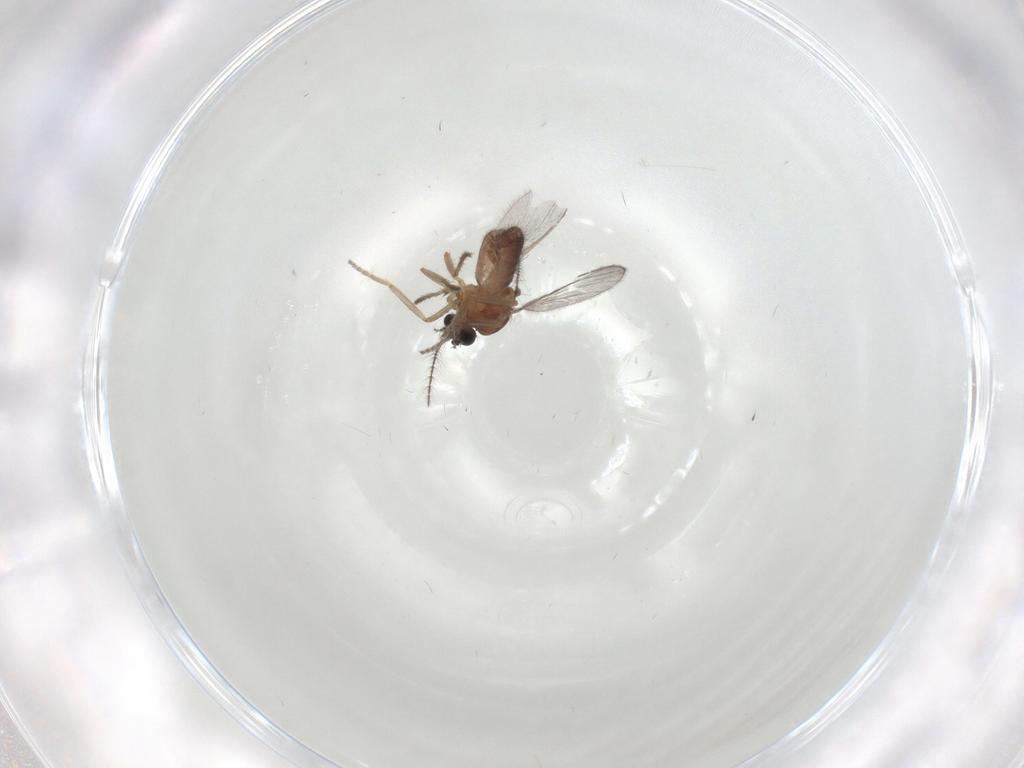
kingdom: Animalia
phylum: Arthropoda
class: Insecta
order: Diptera
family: Ceratopogonidae
